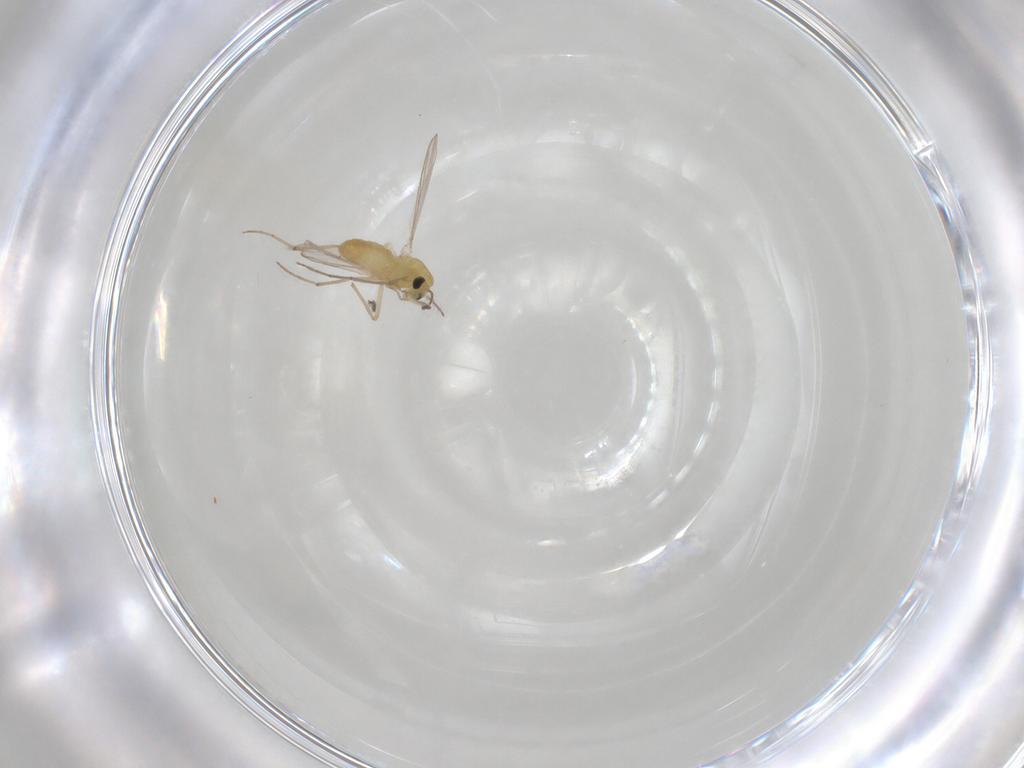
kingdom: Animalia
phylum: Arthropoda
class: Insecta
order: Diptera
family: Chironomidae
